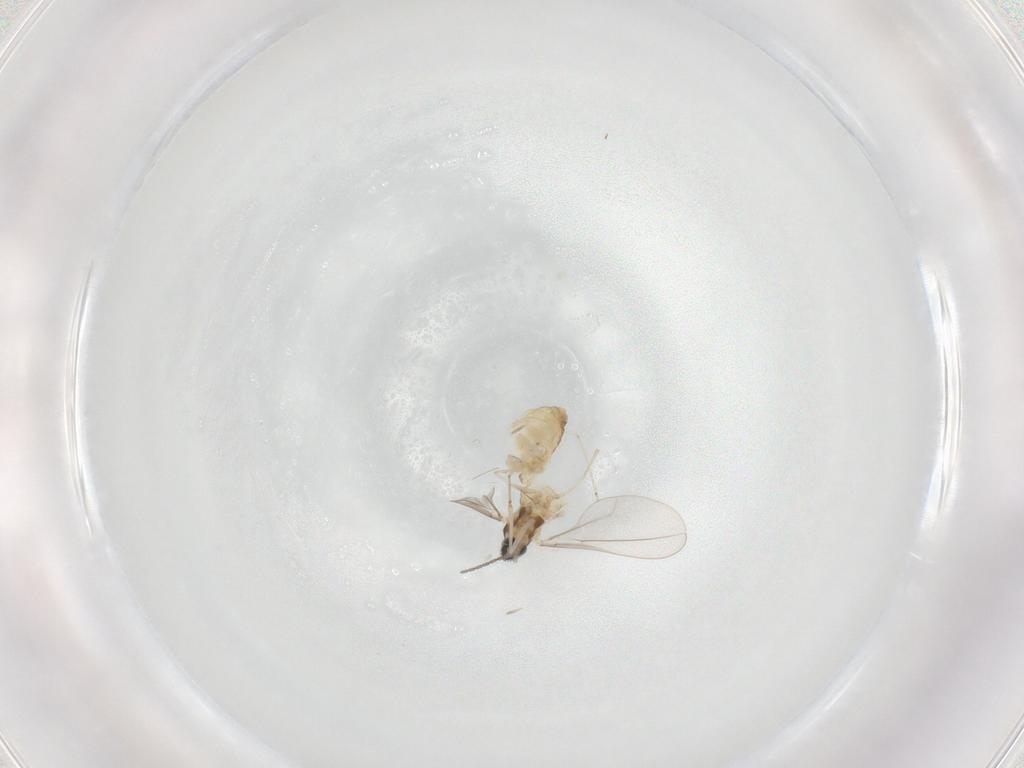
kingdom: Animalia
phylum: Arthropoda
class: Insecta
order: Diptera
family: Cecidomyiidae
